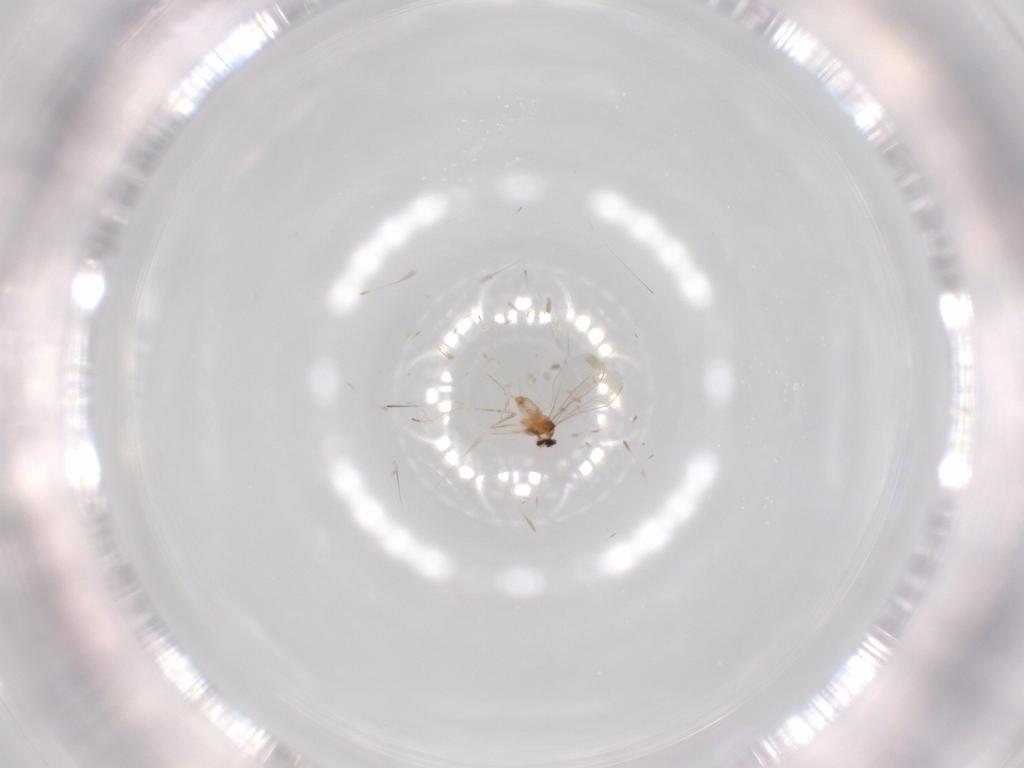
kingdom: Animalia
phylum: Arthropoda
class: Insecta
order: Diptera
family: Cecidomyiidae
